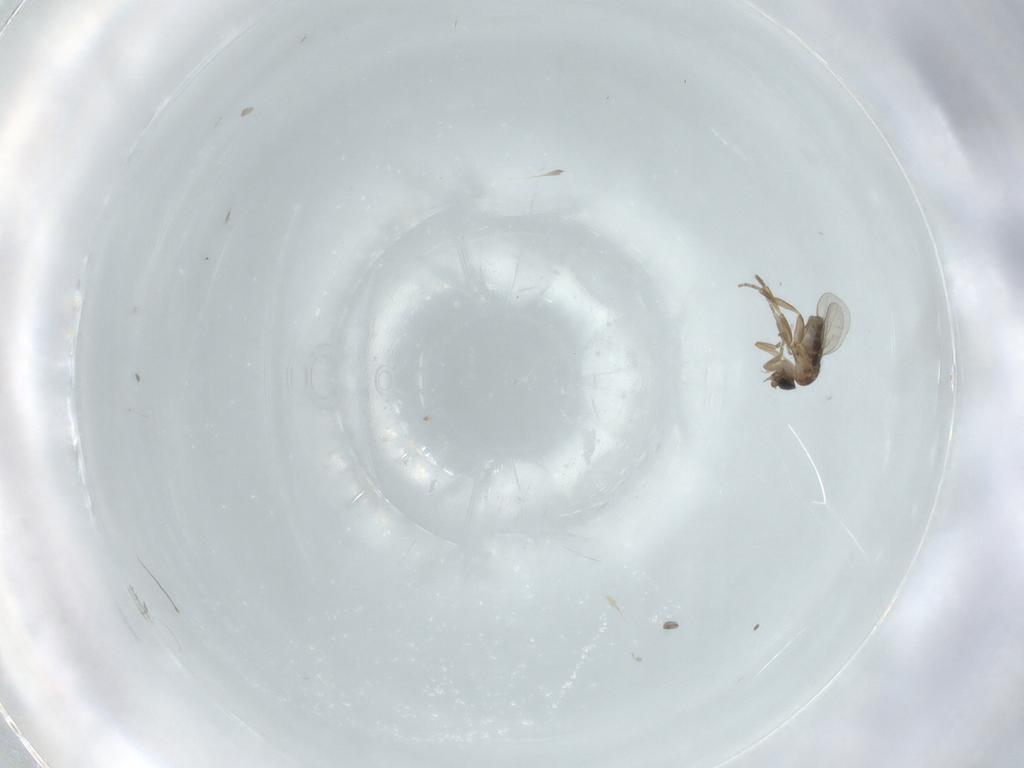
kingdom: Animalia
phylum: Arthropoda
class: Insecta
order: Diptera
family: Phoridae
